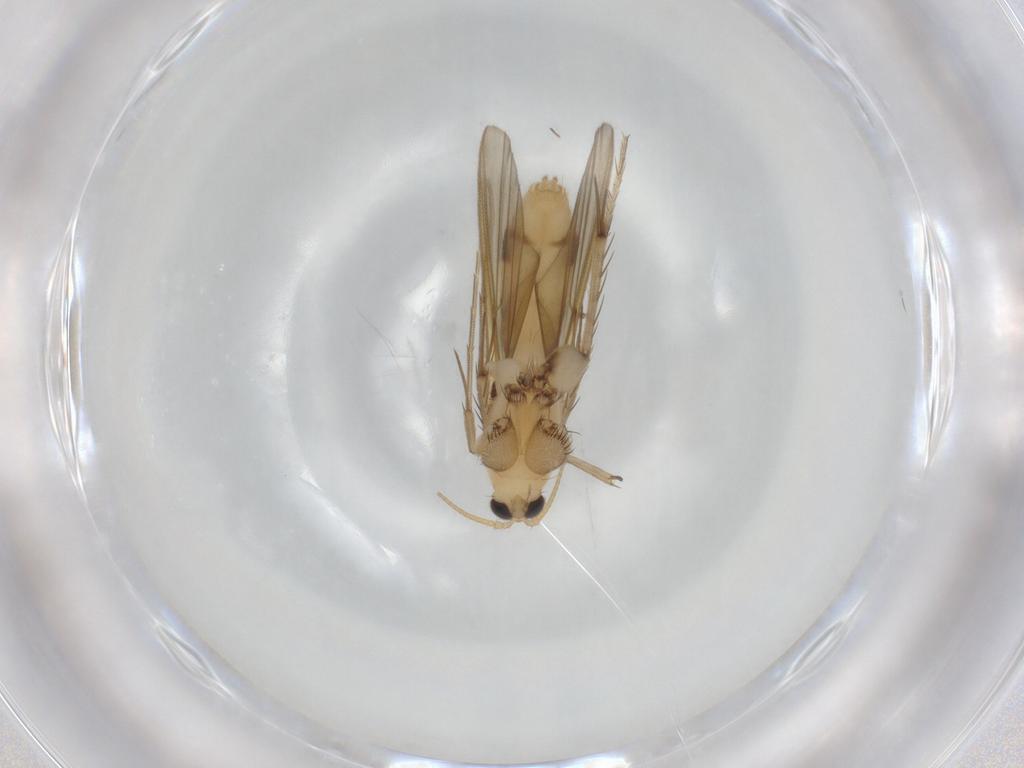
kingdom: Animalia
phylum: Arthropoda
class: Insecta
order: Diptera
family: Mycetophilidae
